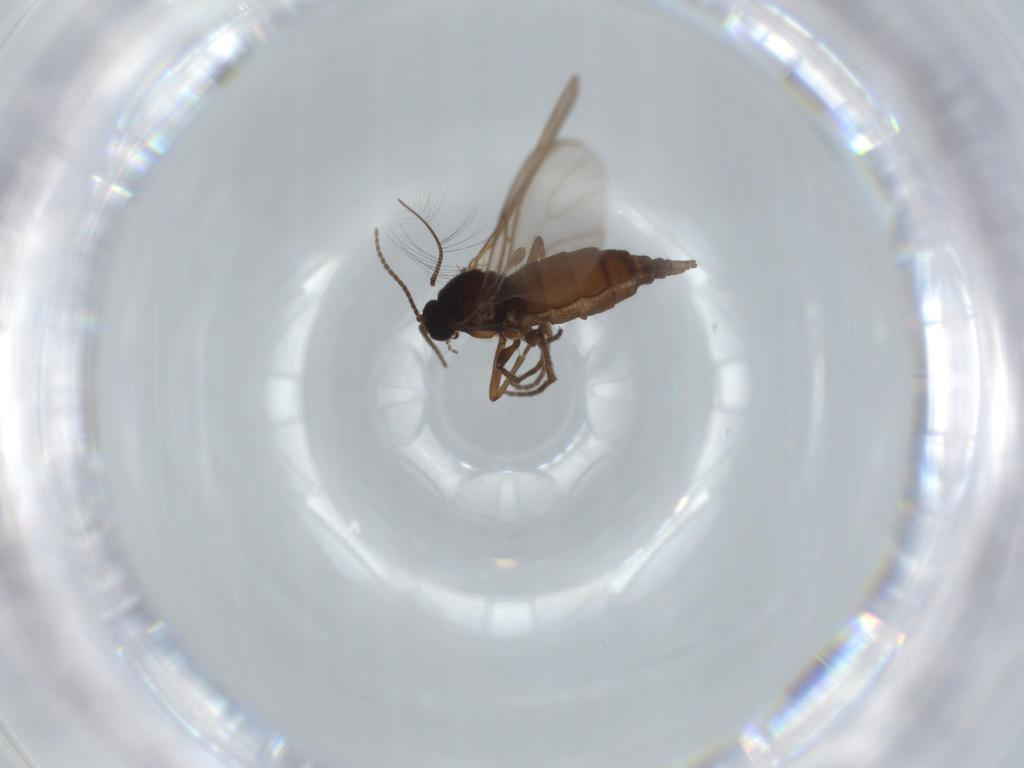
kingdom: Animalia
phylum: Arthropoda
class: Insecta
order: Diptera
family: Sciaridae
